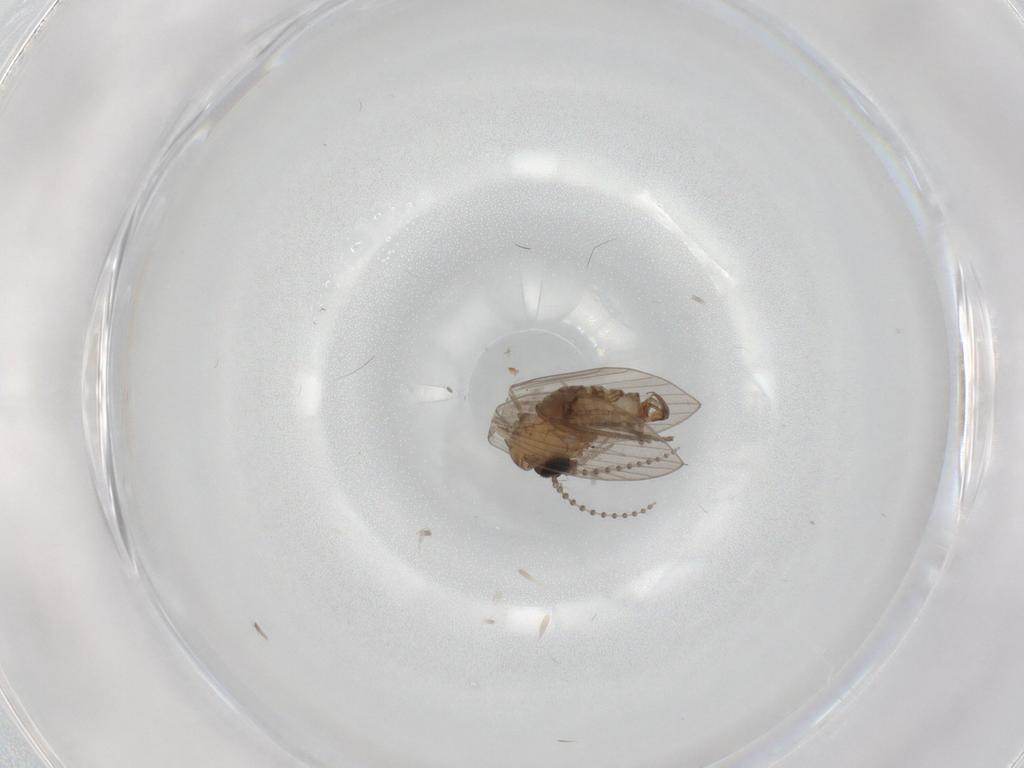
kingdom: Animalia
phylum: Arthropoda
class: Insecta
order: Diptera
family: Psychodidae
